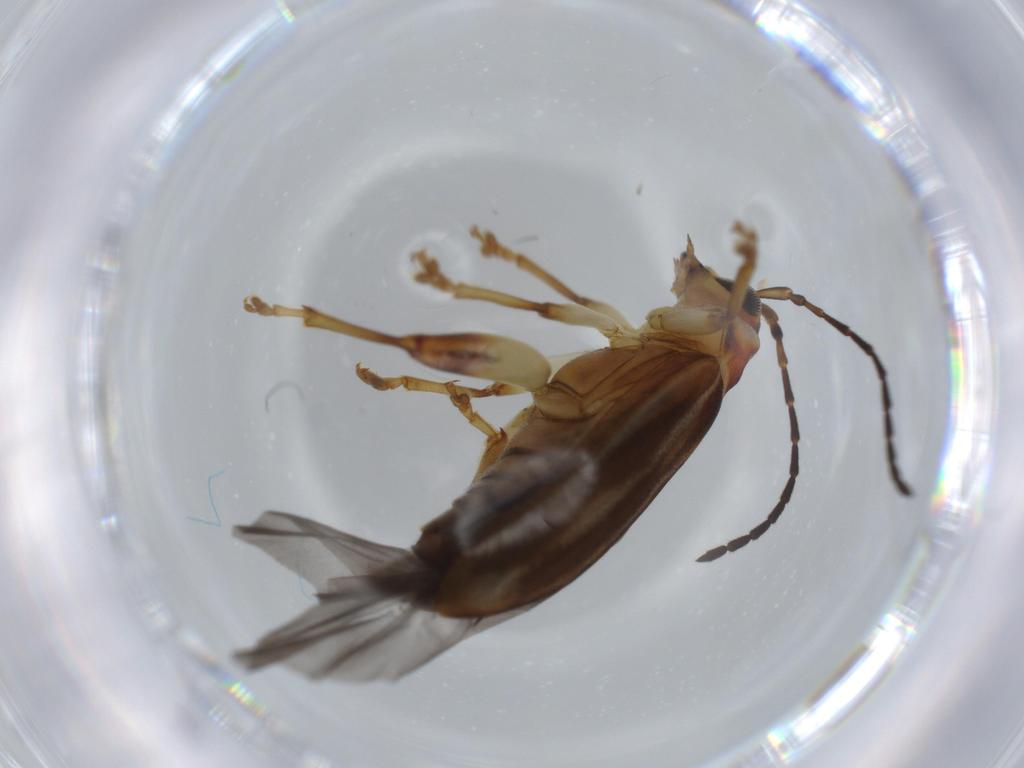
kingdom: Animalia
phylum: Arthropoda
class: Insecta
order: Coleoptera
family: Chrysomelidae
